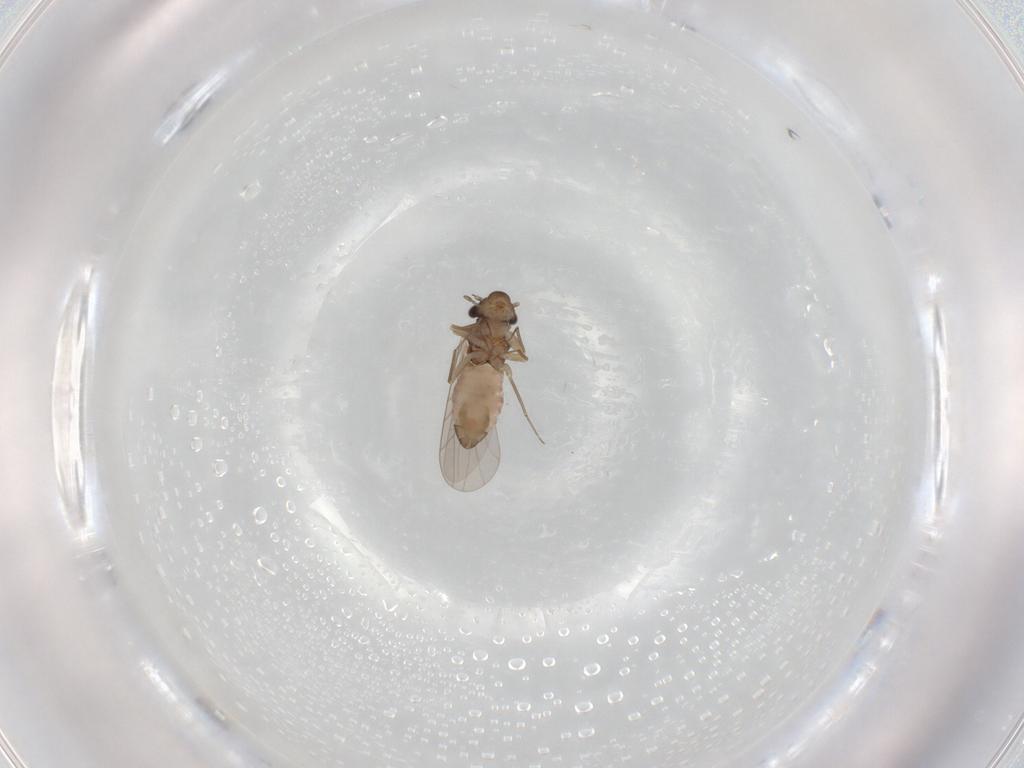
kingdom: Animalia
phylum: Arthropoda
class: Insecta
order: Psocodea
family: Lepidopsocidae
